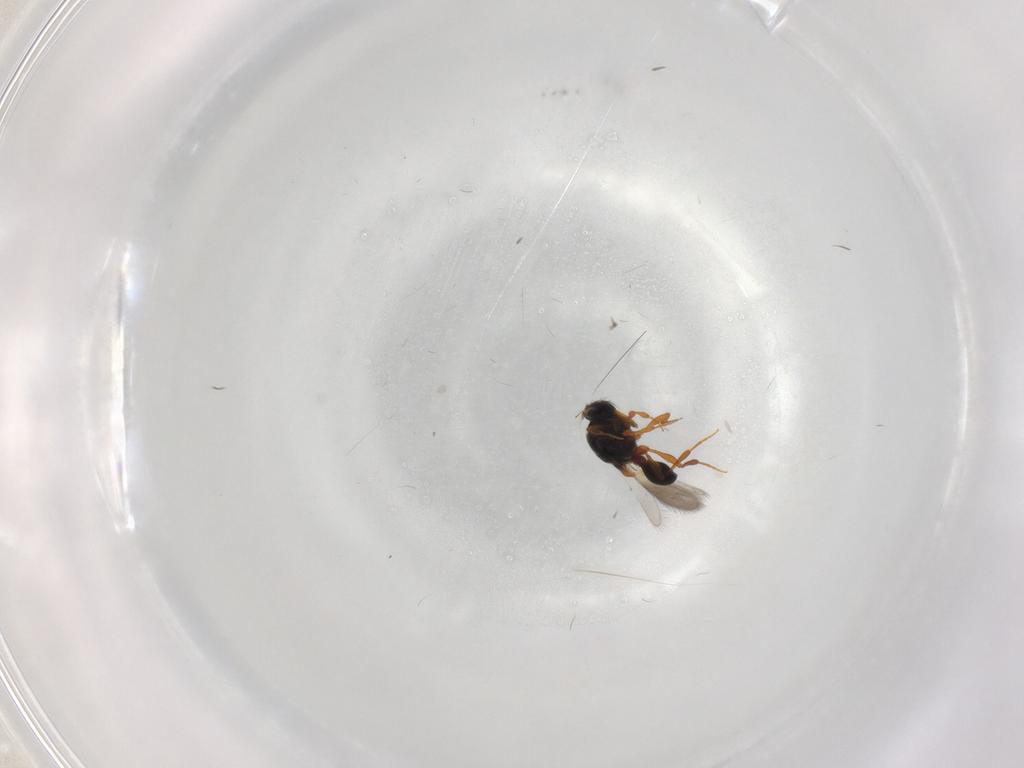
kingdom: Animalia
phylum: Arthropoda
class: Insecta
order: Hymenoptera
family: Platygastridae
